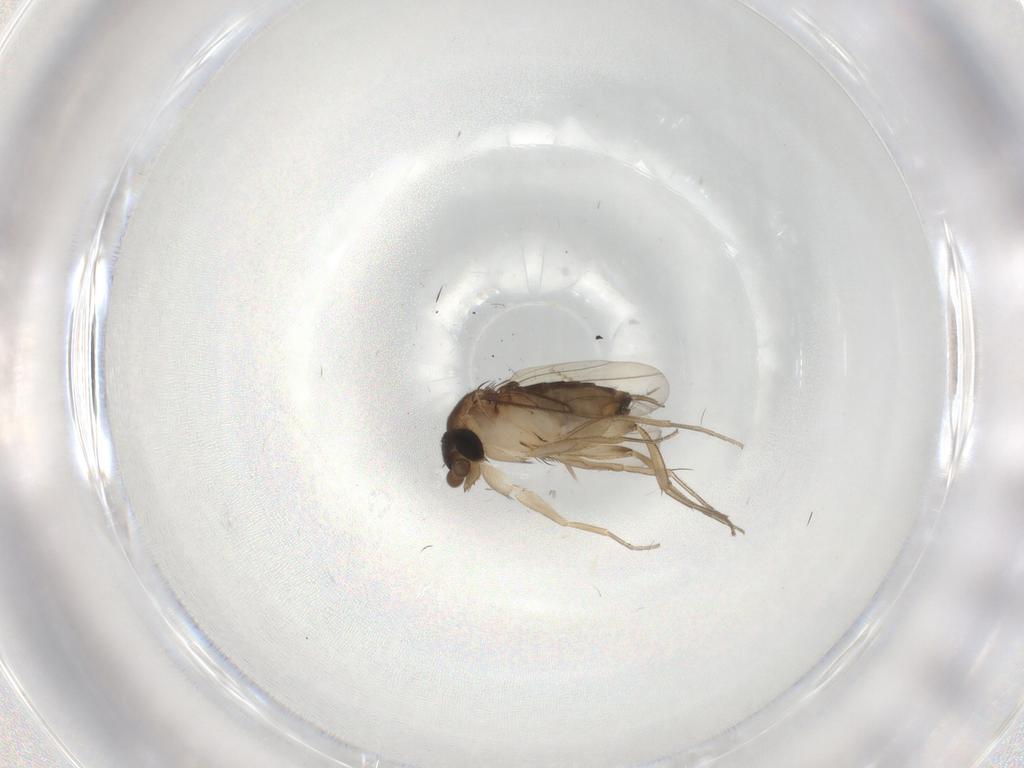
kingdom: Animalia
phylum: Arthropoda
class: Insecta
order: Diptera
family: Phoridae
